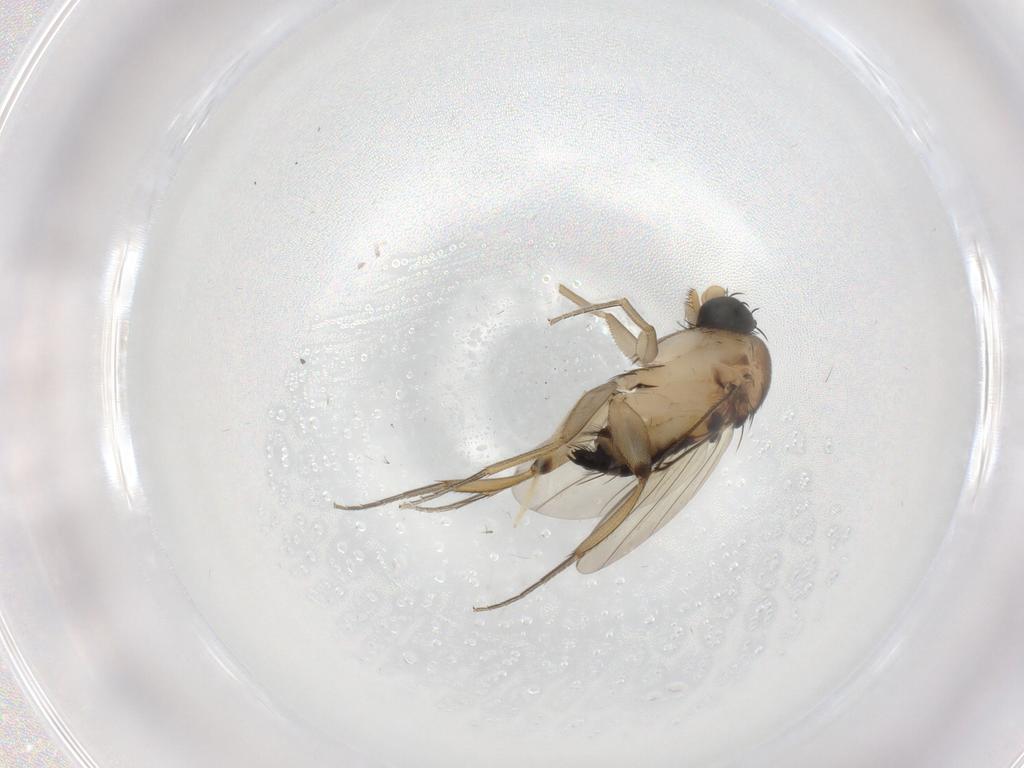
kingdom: Animalia
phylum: Arthropoda
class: Insecta
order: Diptera
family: Phoridae
